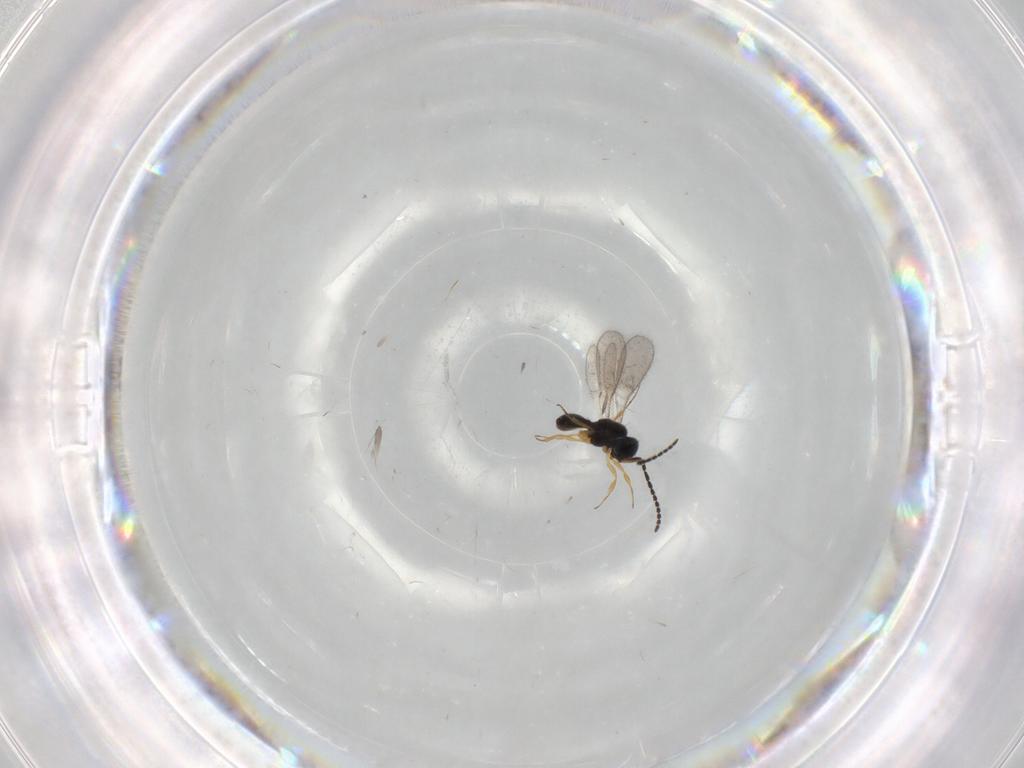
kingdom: Animalia
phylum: Arthropoda
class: Insecta
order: Hymenoptera
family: Scelionidae
